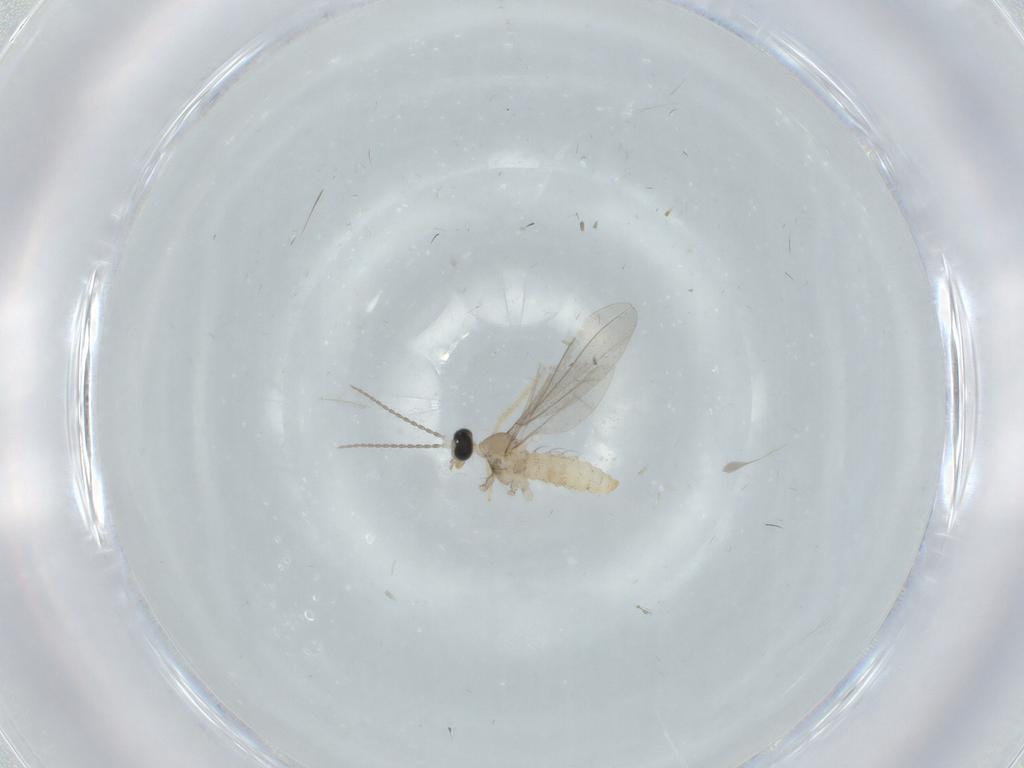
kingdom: Animalia
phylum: Arthropoda
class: Insecta
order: Diptera
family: Cecidomyiidae
